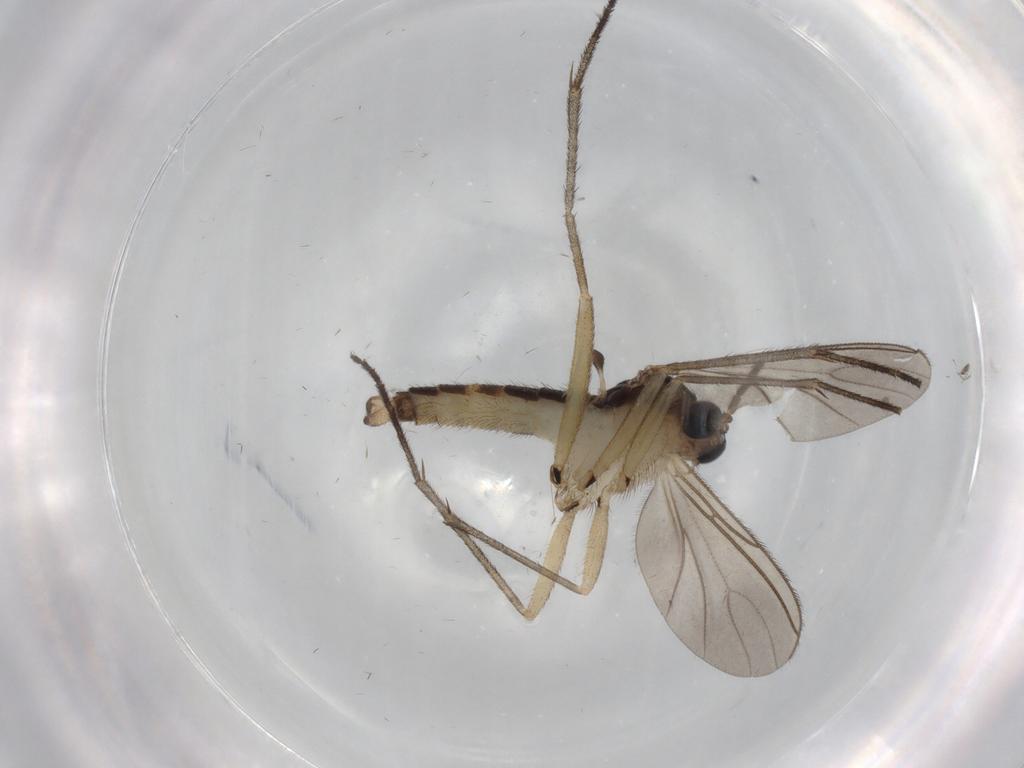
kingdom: Animalia
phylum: Arthropoda
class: Insecta
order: Diptera
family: Sciaridae
